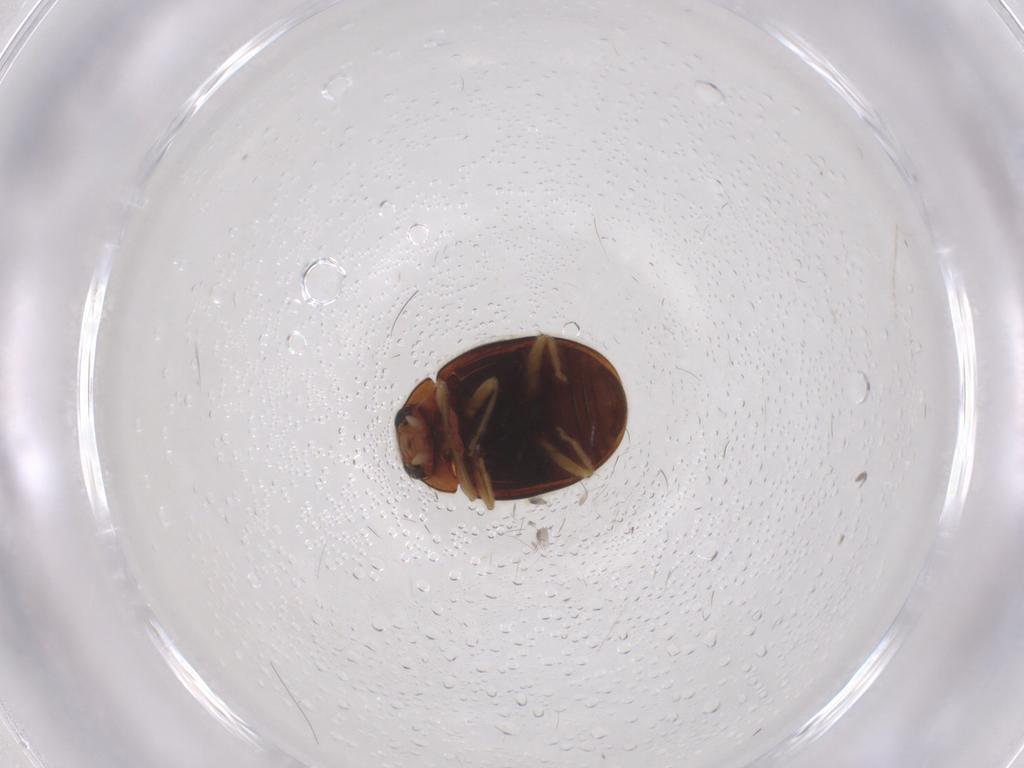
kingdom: Animalia
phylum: Arthropoda
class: Insecta
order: Coleoptera
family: Coccinellidae
